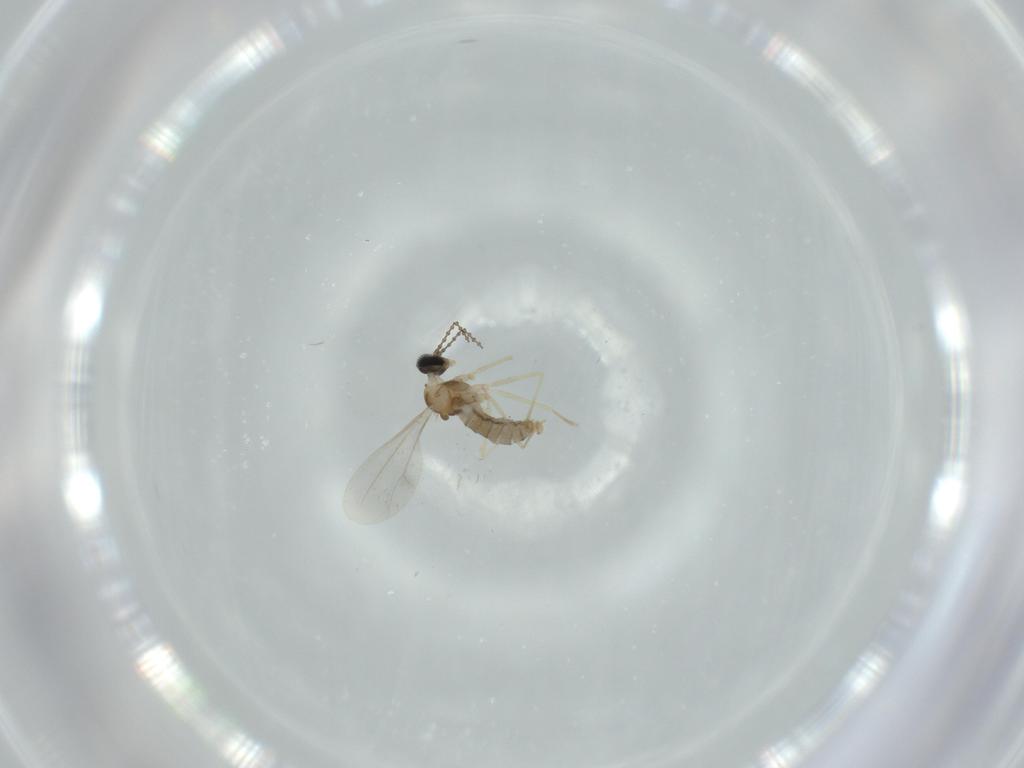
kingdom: Animalia
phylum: Arthropoda
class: Insecta
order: Diptera
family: Cecidomyiidae
